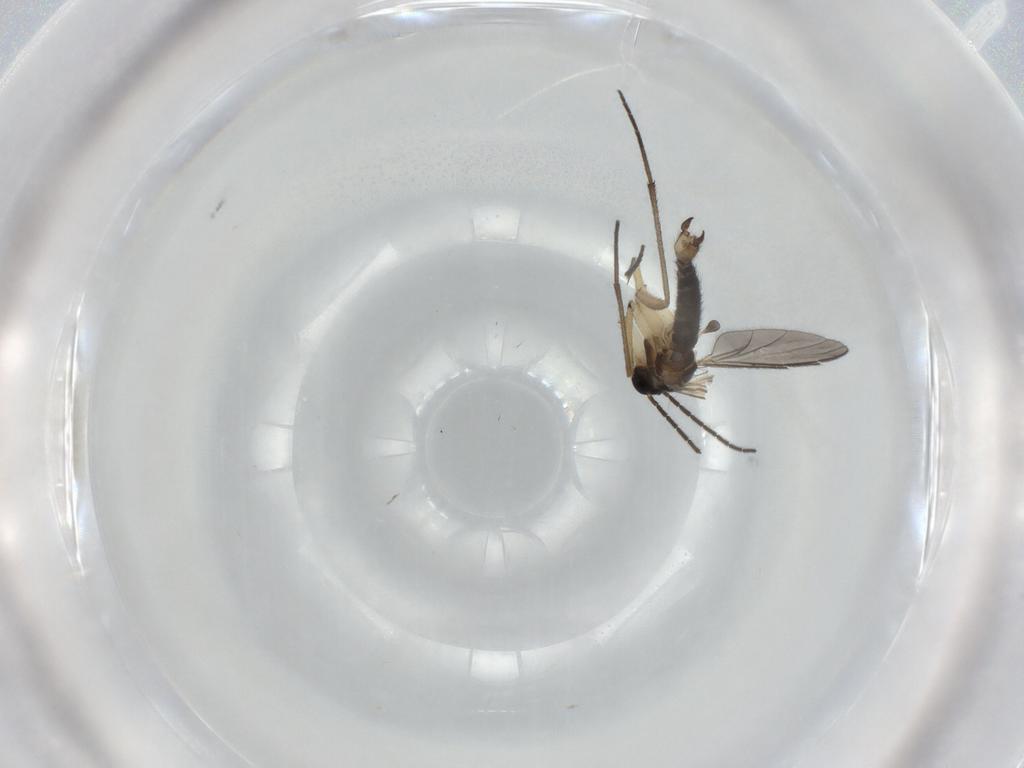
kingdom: Animalia
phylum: Arthropoda
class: Insecta
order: Diptera
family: Sciaridae
